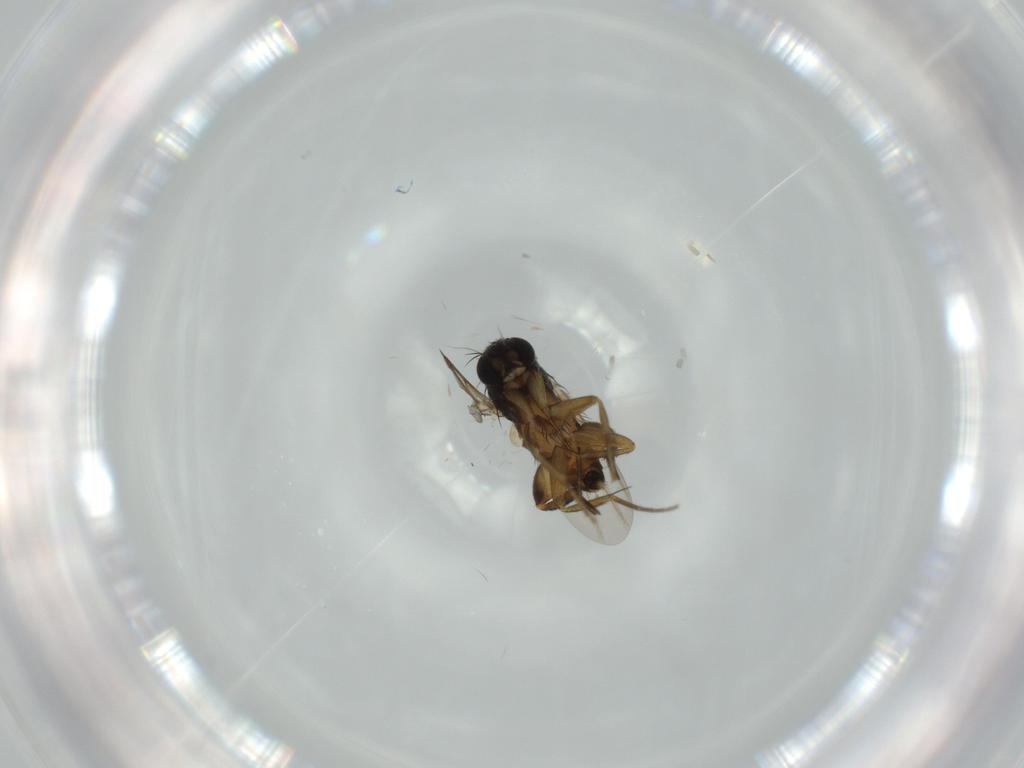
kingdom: Animalia
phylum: Arthropoda
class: Insecta
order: Diptera
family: Phoridae
